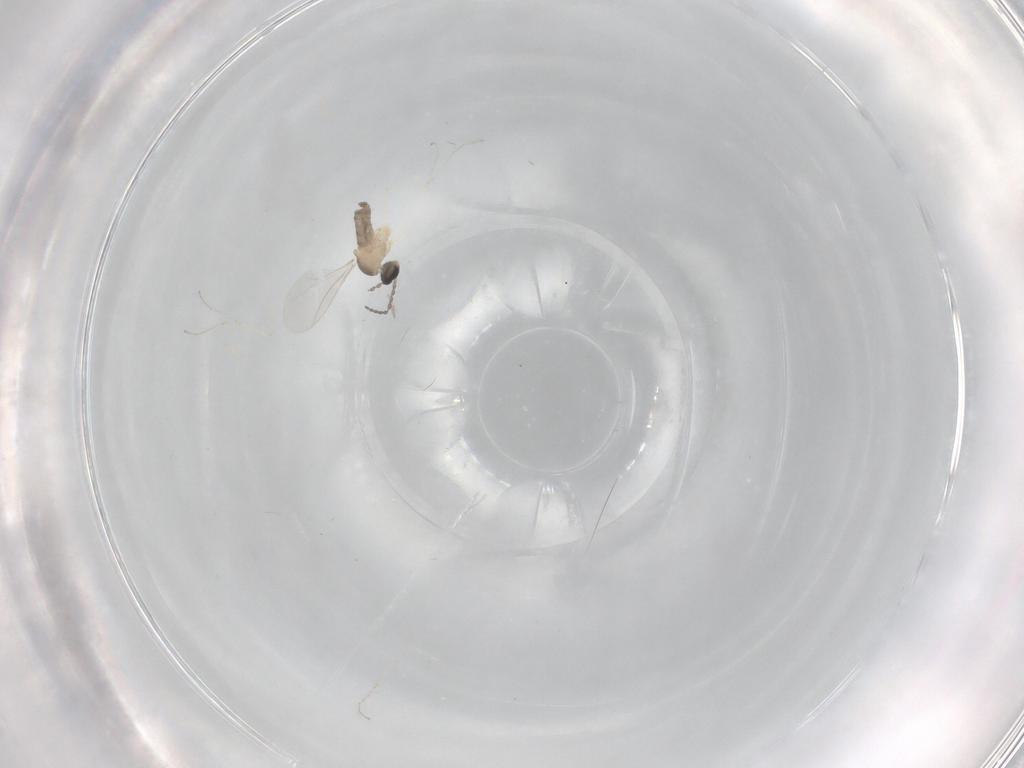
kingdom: Animalia
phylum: Arthropoda
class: Insecta
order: Diptera
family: Cecidomyiidae
